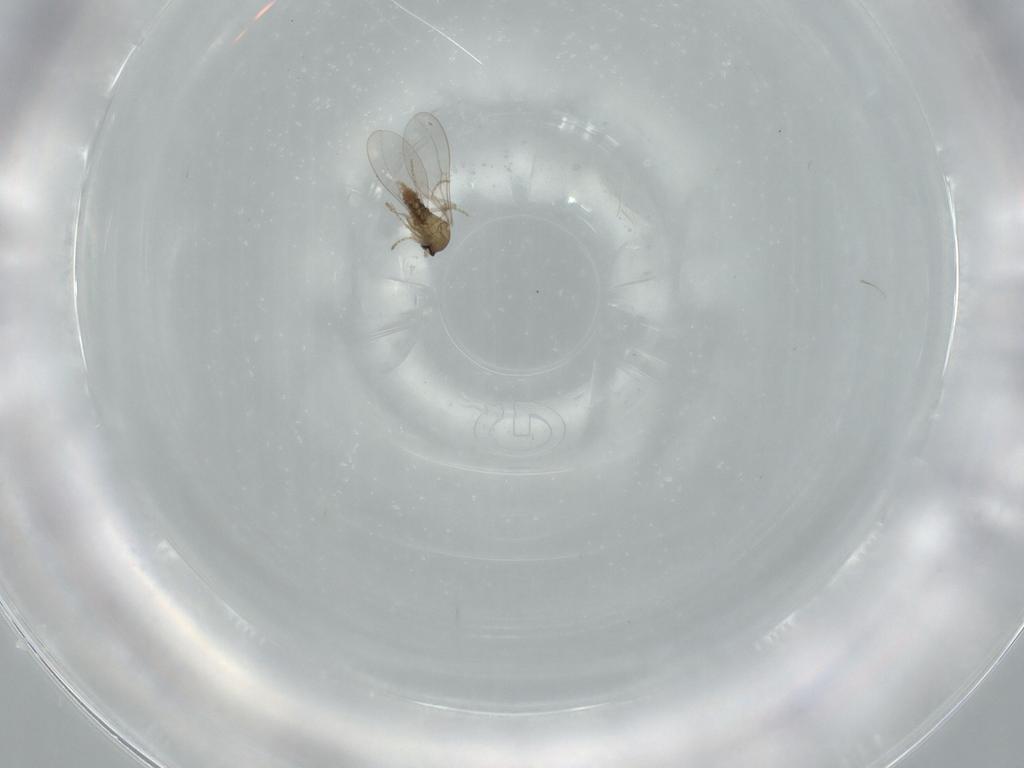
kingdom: Animalia
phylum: Arthropoda
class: Insecta
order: Diptera
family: Cecidomyiidae
